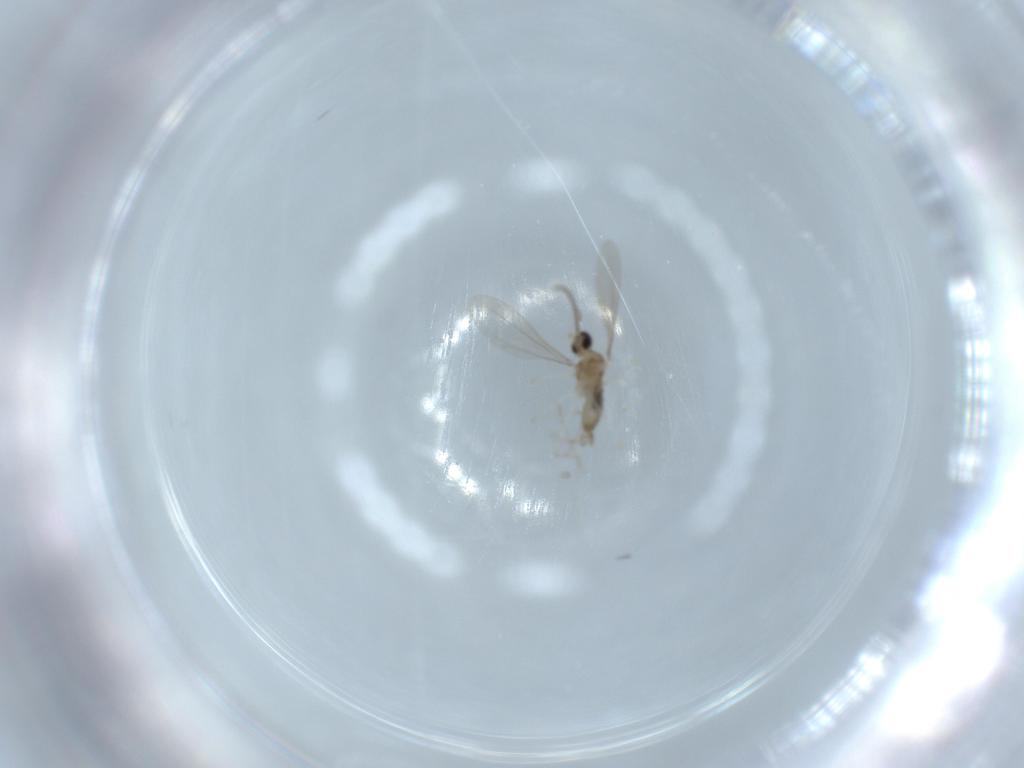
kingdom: Animalia
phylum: Arthropoda
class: Insecta
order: Diptera
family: Cecidomyiidae
